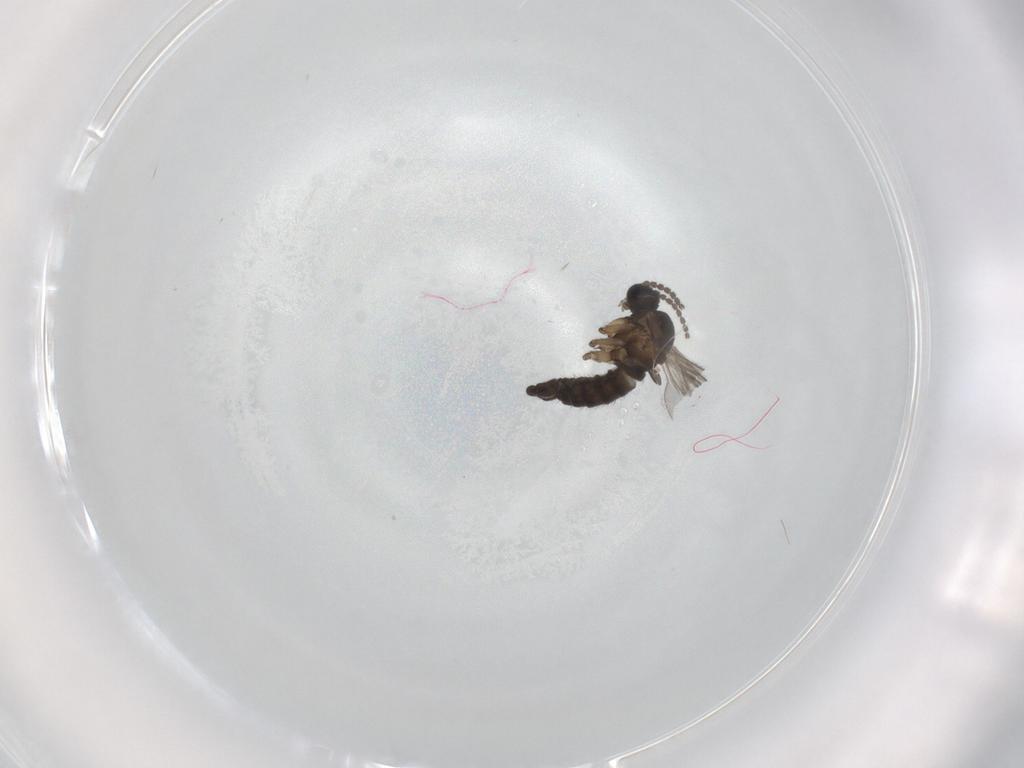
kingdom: Animalia
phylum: Arthropoda
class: Insecta
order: Diptera
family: Sciaridae
